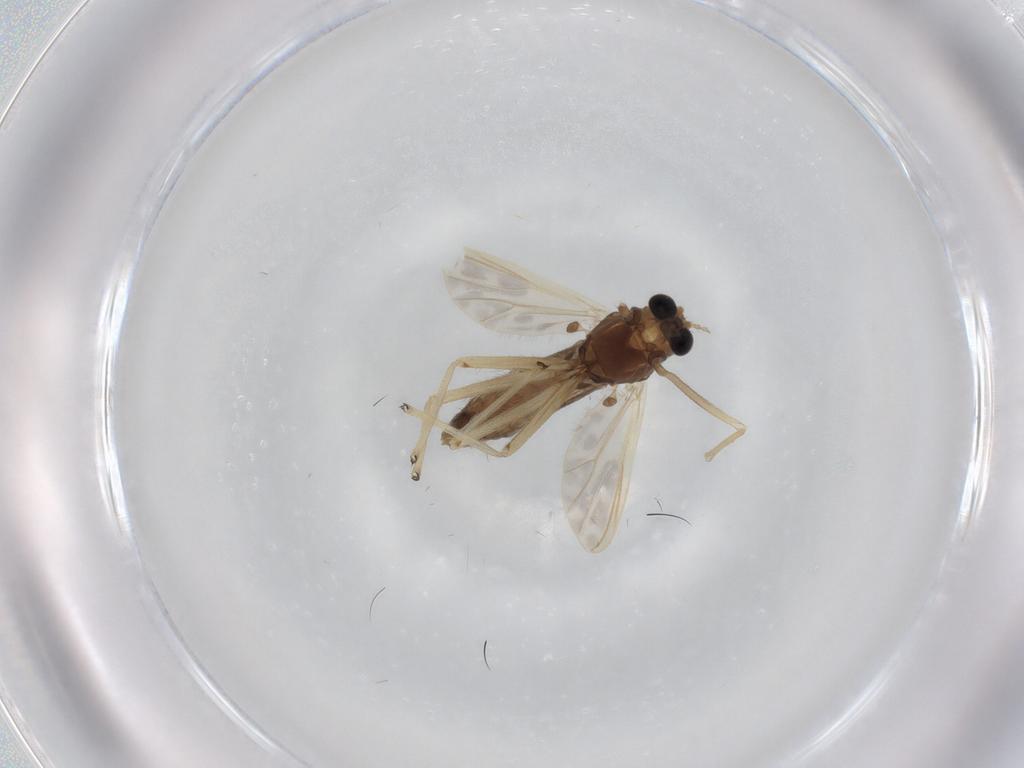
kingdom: Animalia
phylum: Arthropoda
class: Insecta
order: Diptera
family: Chironomidae
